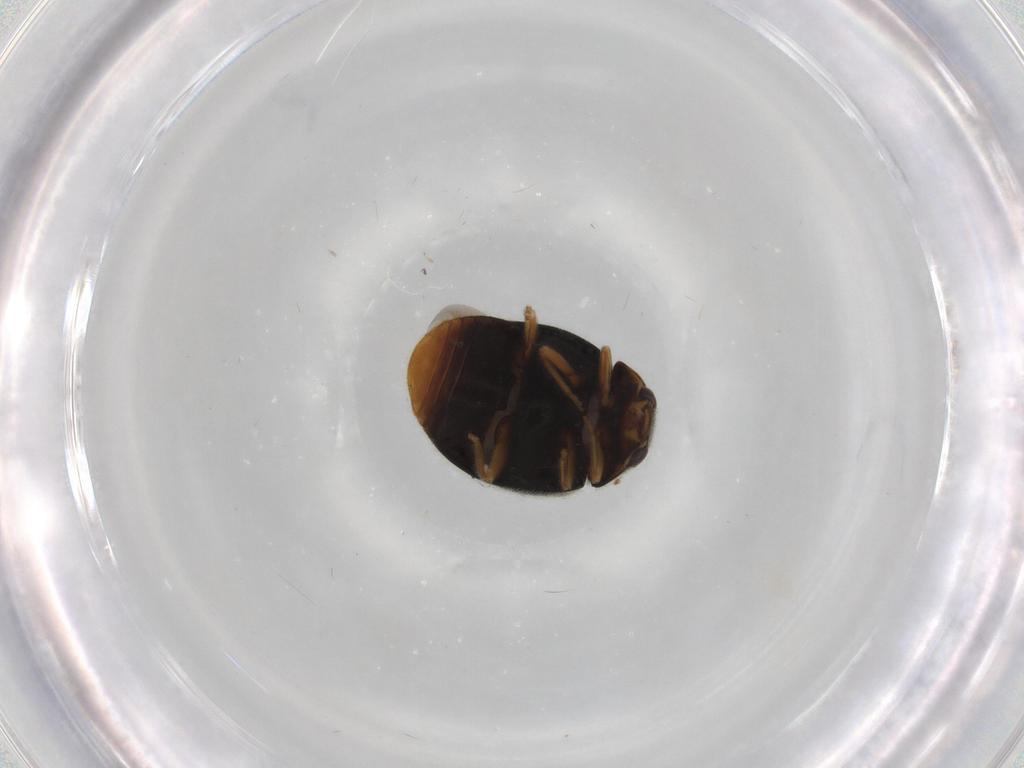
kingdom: Animalia
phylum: Arthropoda
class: Insecta
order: Coleoptera
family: Coccinellidae
